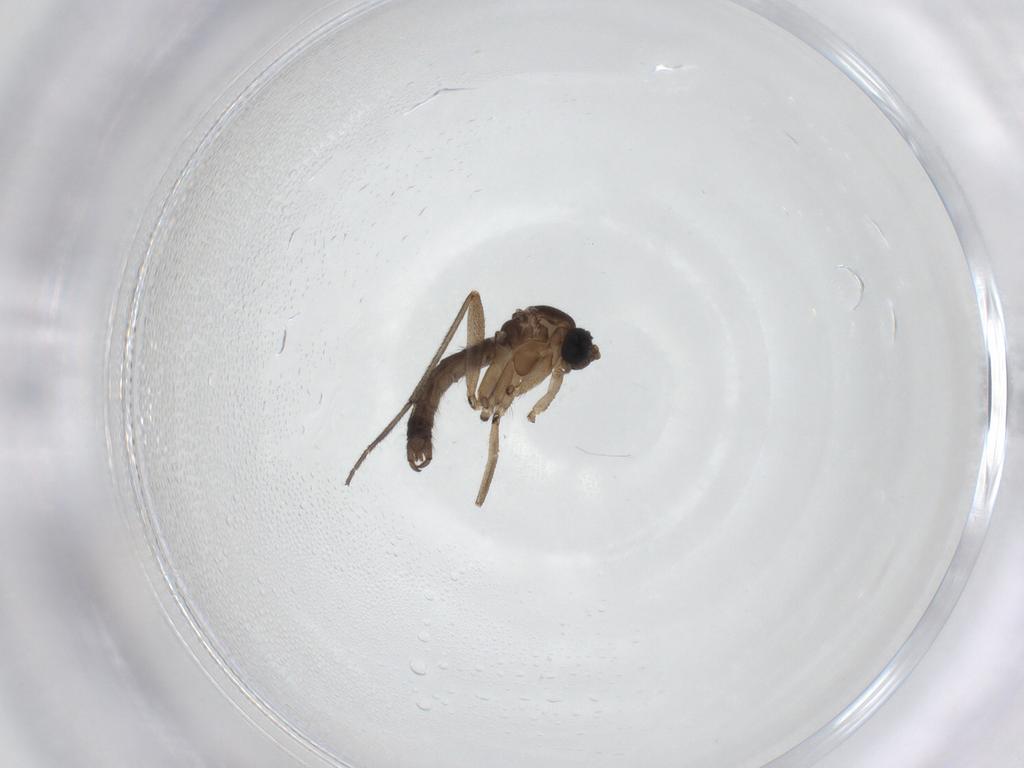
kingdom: Animalia
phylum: Arthropoda
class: Insecta
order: Diptera
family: Sciaridae
